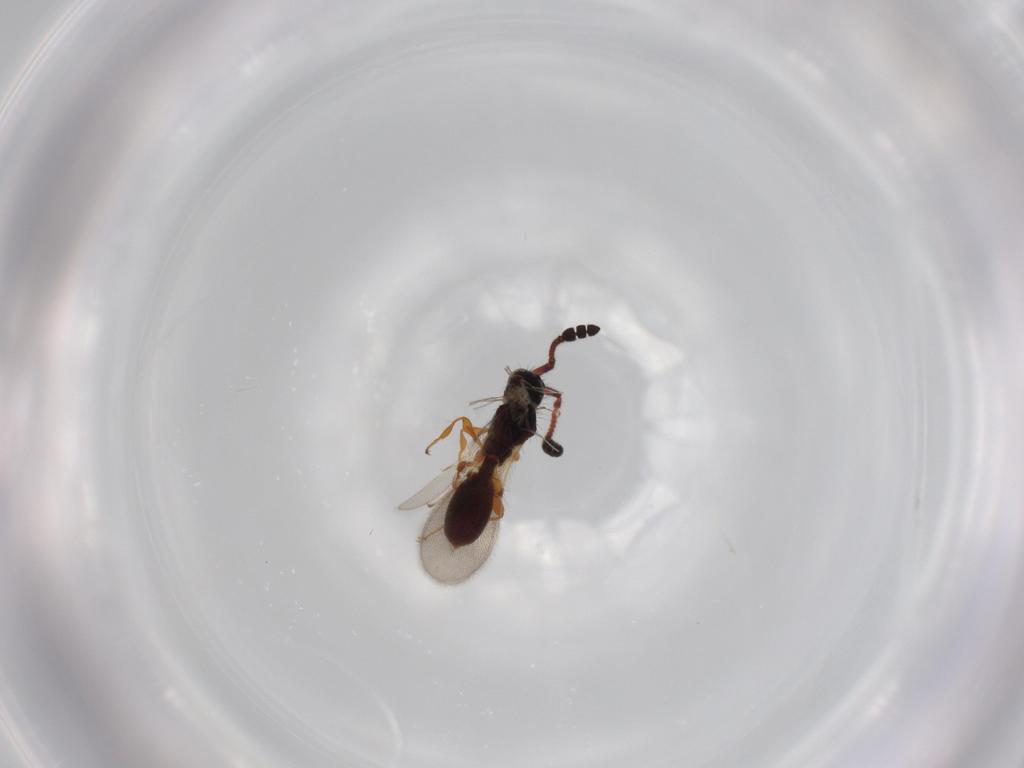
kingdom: Animalia
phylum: Arthropoda
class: Insecta
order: Hymenoptera
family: Diapriidae
